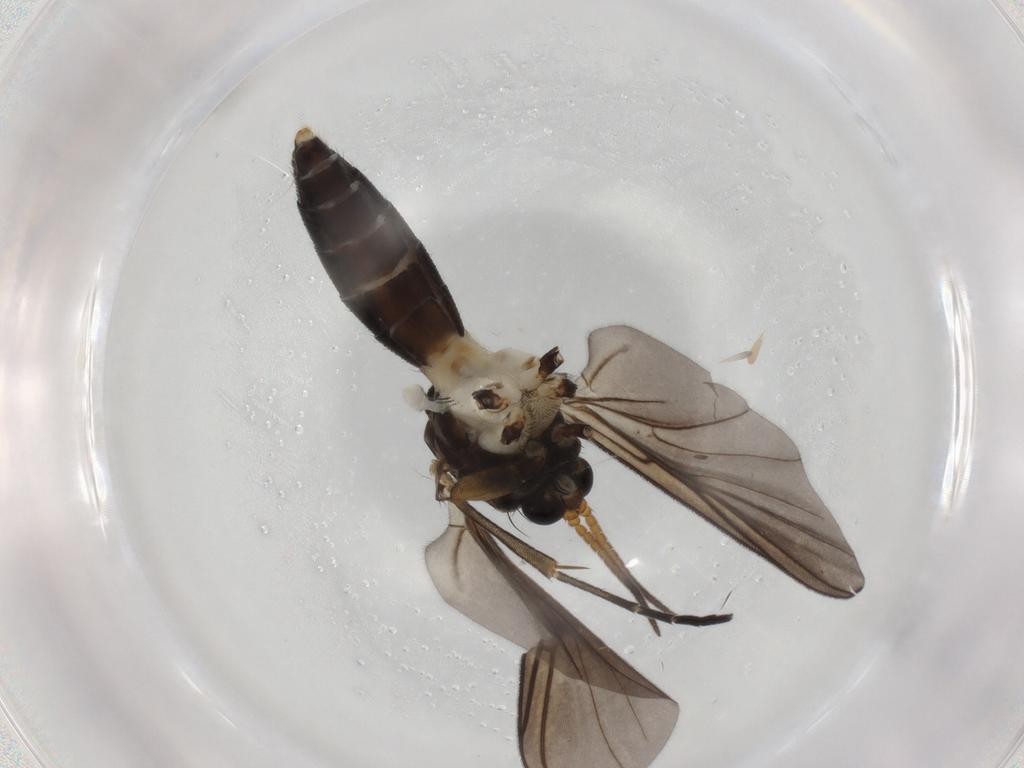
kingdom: Animalia
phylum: Arthropoda
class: Insecta
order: Diptera
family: Mycetophilidae
